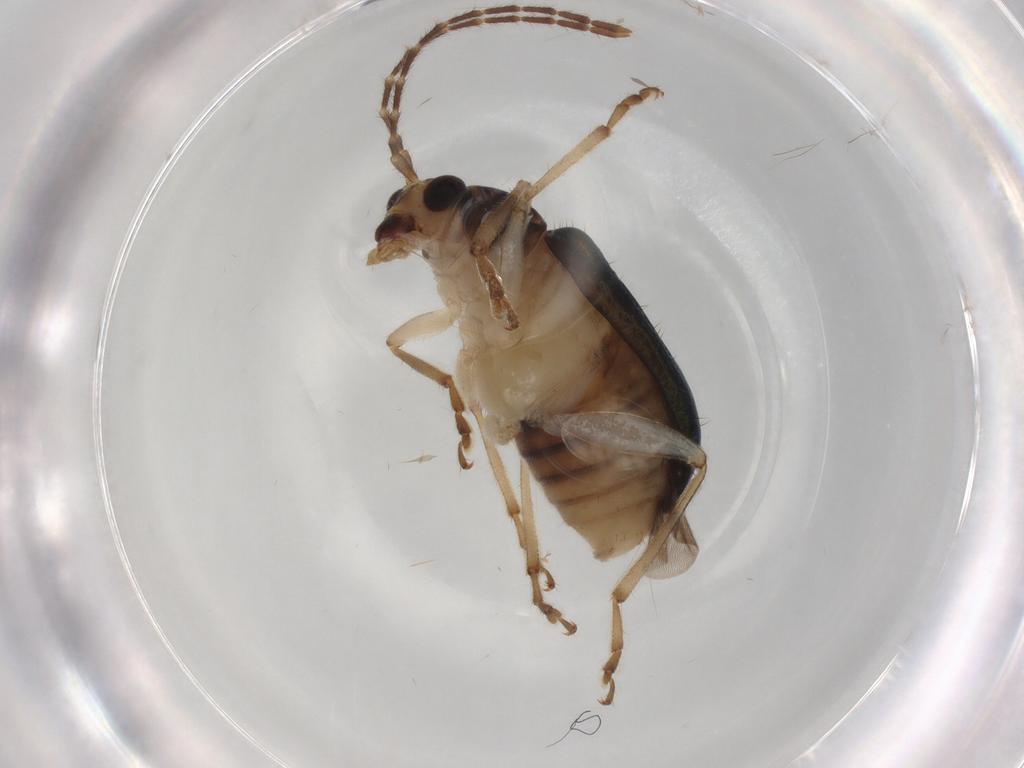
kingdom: Animalia
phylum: Arthropoda
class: Insecta
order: Coleoptera
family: Chrysomelidae
